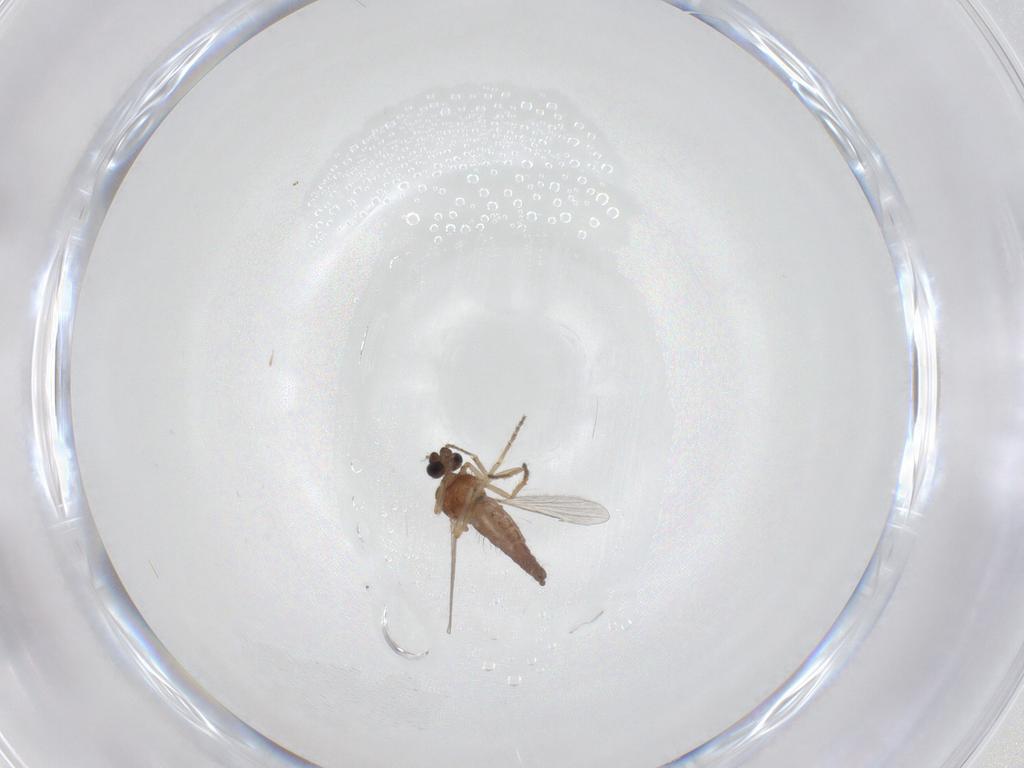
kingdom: Animalia
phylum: Arthropoda
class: Insecta
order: Diptera
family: Ceratopogonidae
